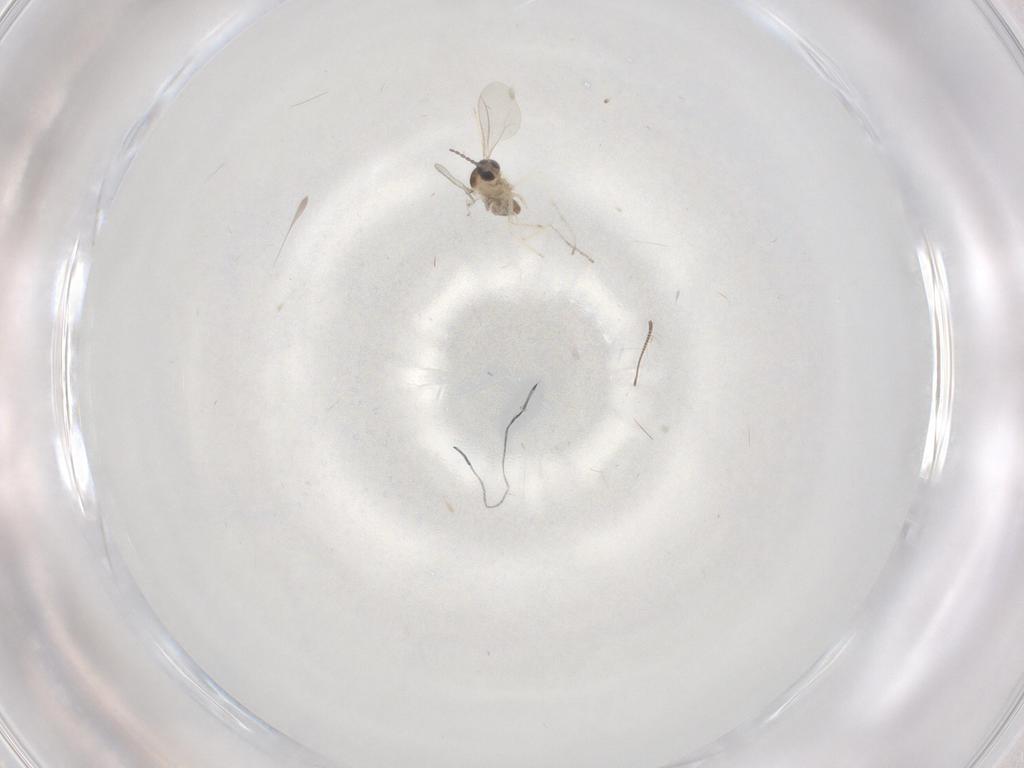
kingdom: Animalia
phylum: Arthropoda
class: Insecta
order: Diptera
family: Cecidomyiidae
